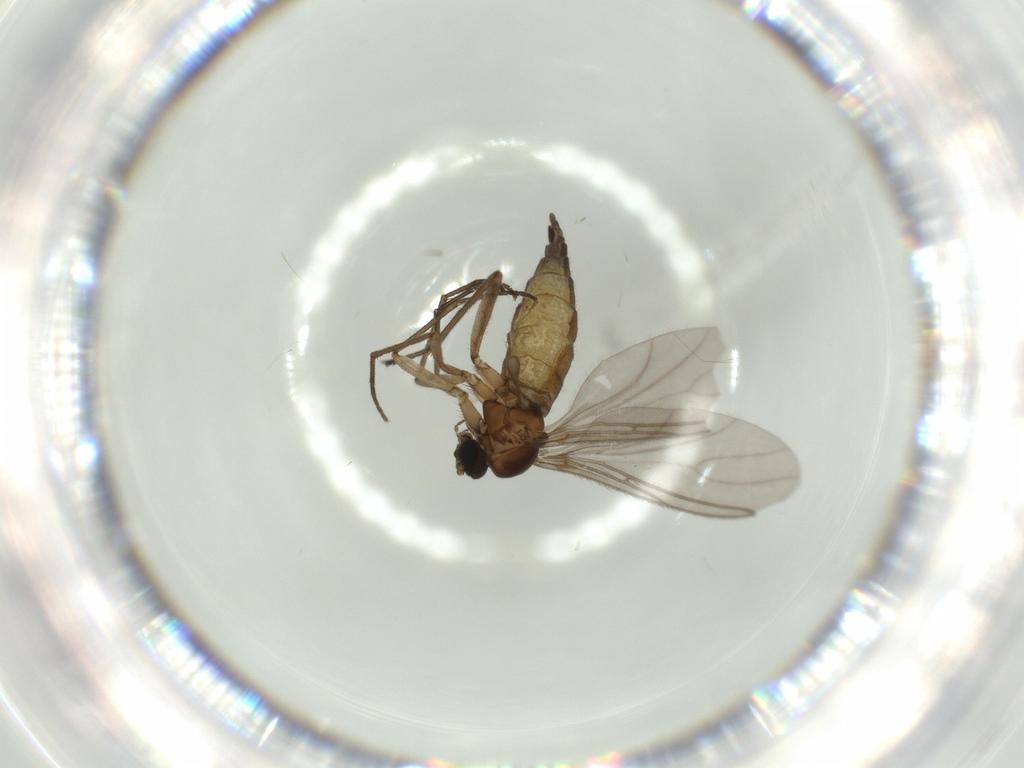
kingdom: Animalia
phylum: Arthropoda
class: Insecta
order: Diptera
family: Sciaridae
